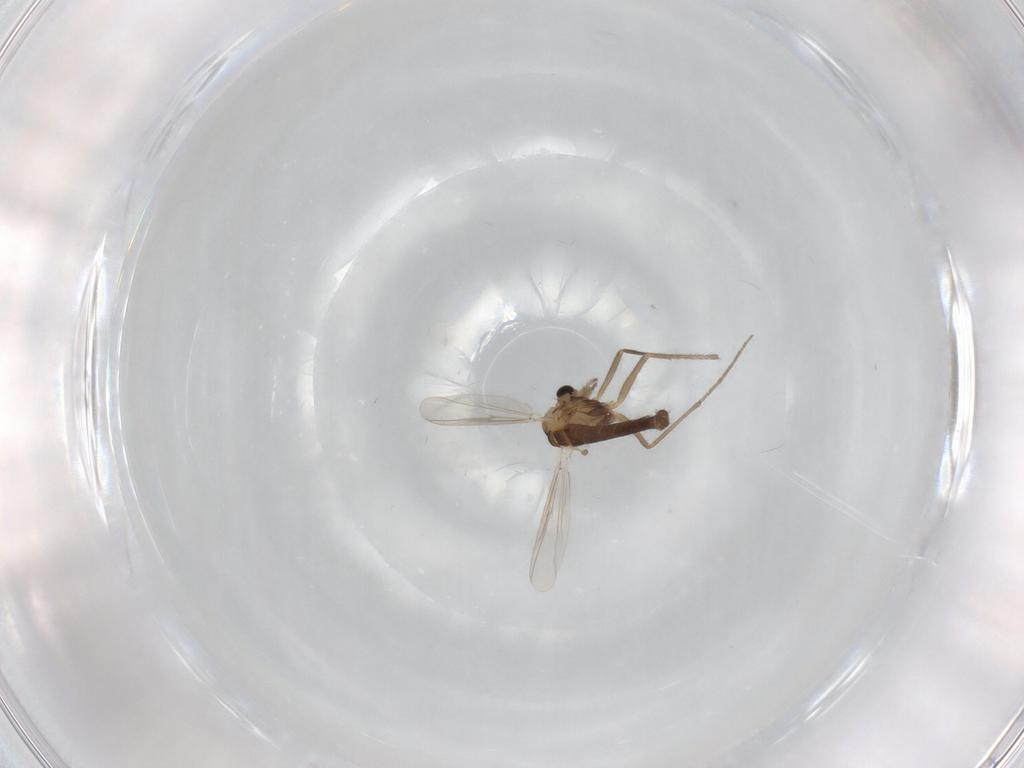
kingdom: Animalia
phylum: Arthropoda
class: Insecta
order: Diptera
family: Chironomidae
